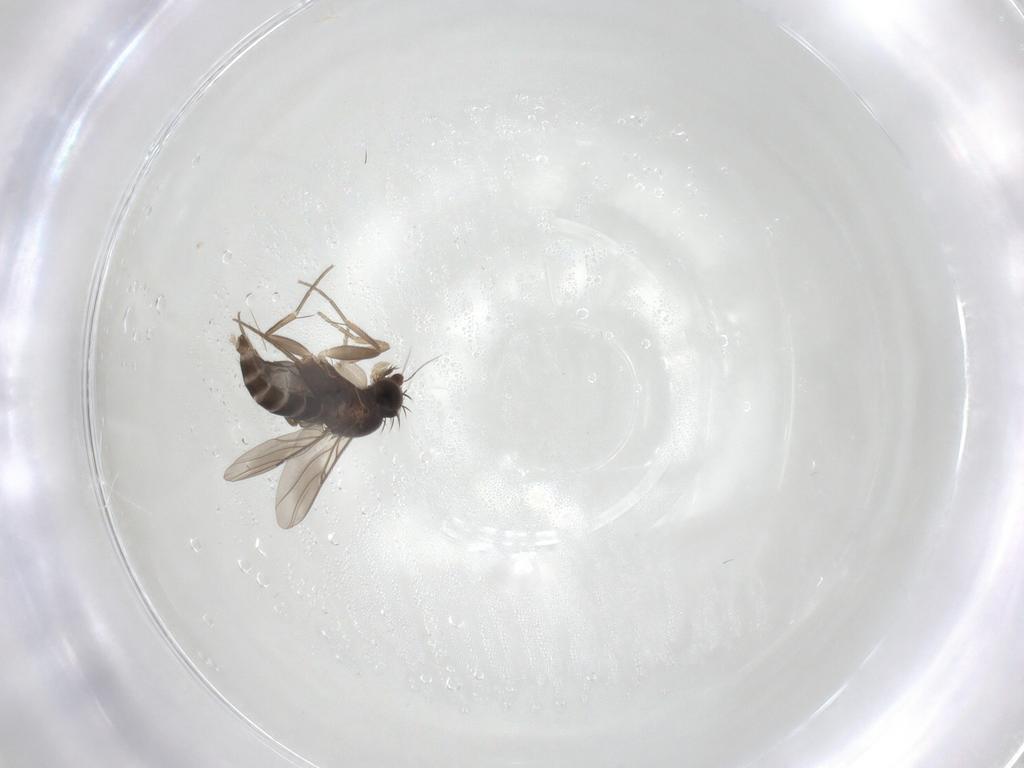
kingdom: Animalia
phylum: Arthropoda
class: Insecta
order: Diptera
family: Phoridae
